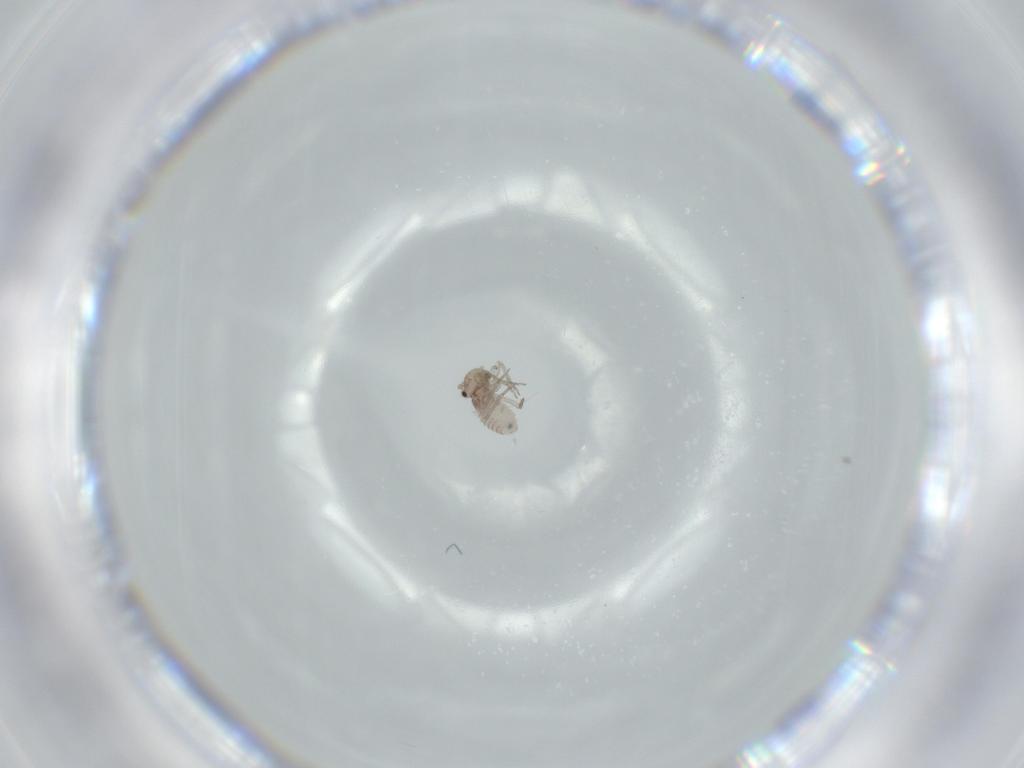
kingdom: Animalia
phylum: Arthropoda
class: Insecta
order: Psocodea
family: Lachesillidae
